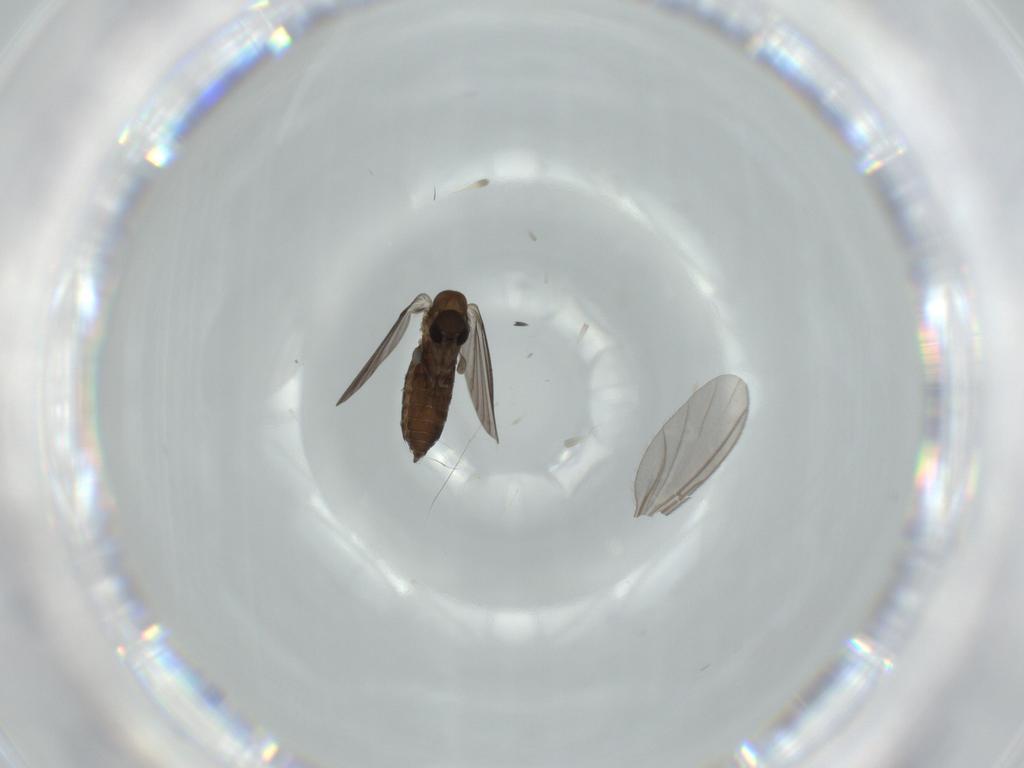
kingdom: Animalia
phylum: Arthropoda
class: Insecta
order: Diptera
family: Sciaridae
